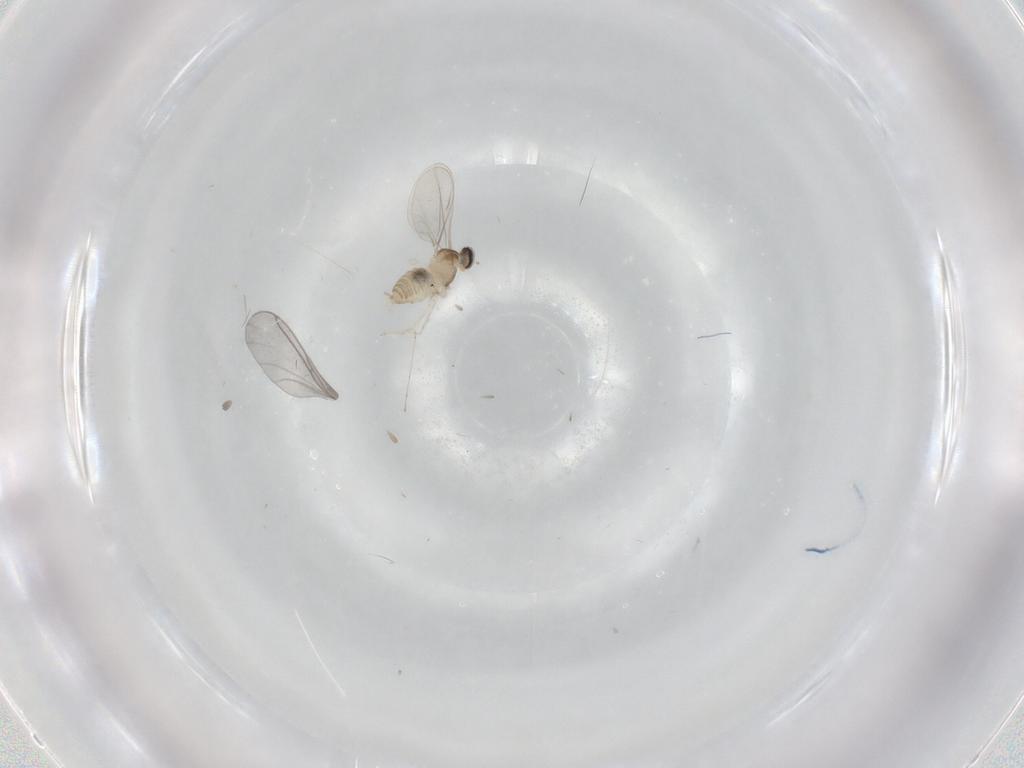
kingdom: Animalia
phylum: Arthropoda
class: Insecta
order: Diptera
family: Cecidomyiidae
